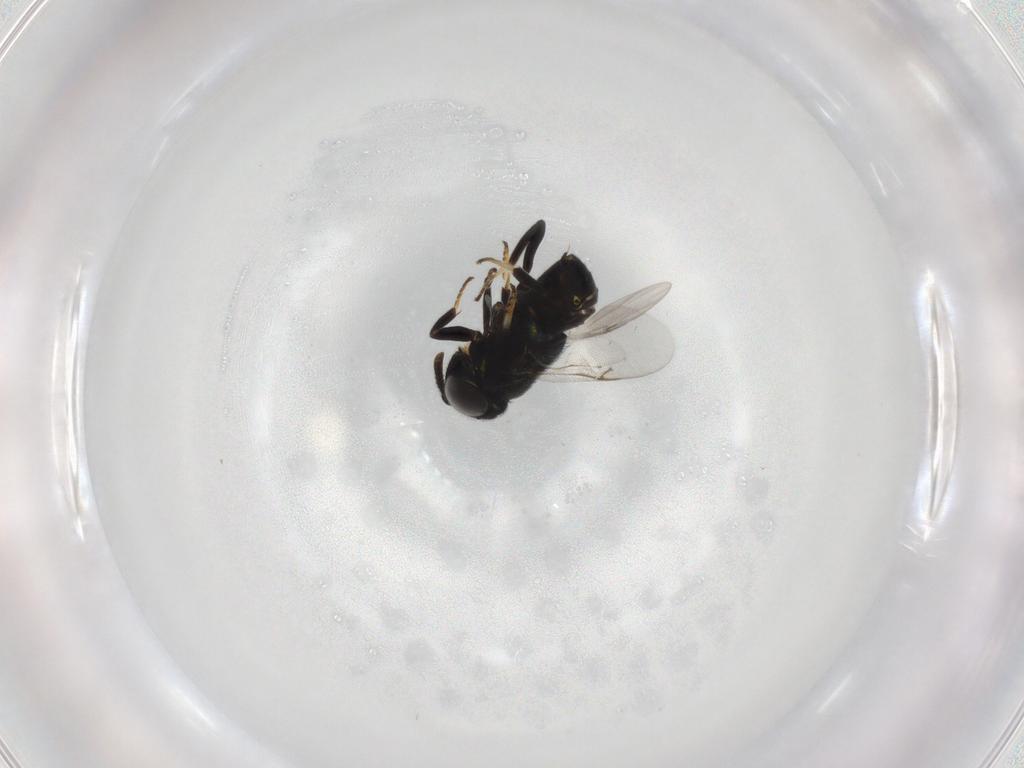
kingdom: Animalia
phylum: Arthropoda
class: Insecta
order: Hymenoptera
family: Encyrtidae
